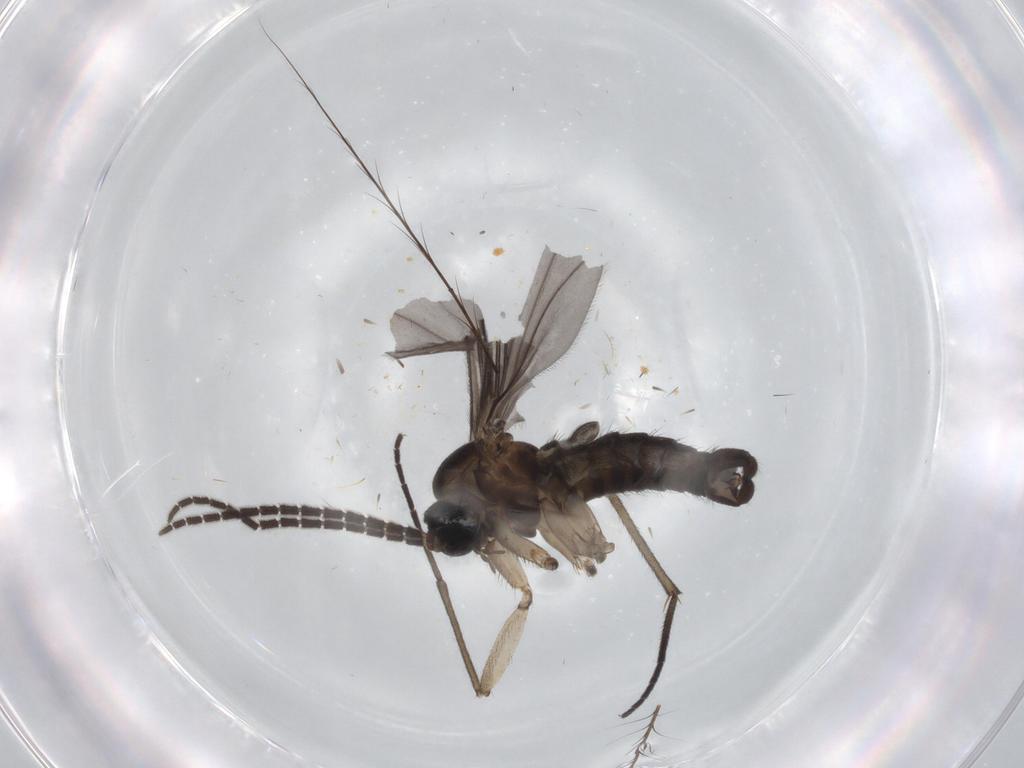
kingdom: Animalia
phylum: Arthropoda
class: Insecta
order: Diptera
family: Sciaridae
